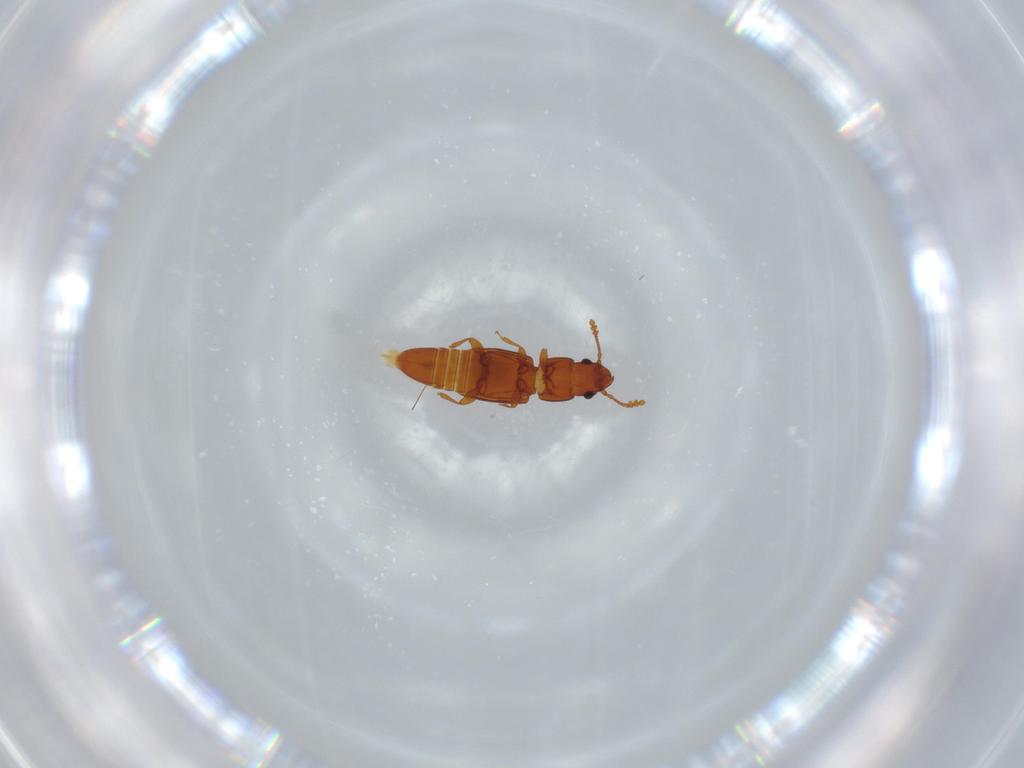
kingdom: Animalia
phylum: Arthropoda
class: Insecta
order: Coleoptera
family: Smicripidae
